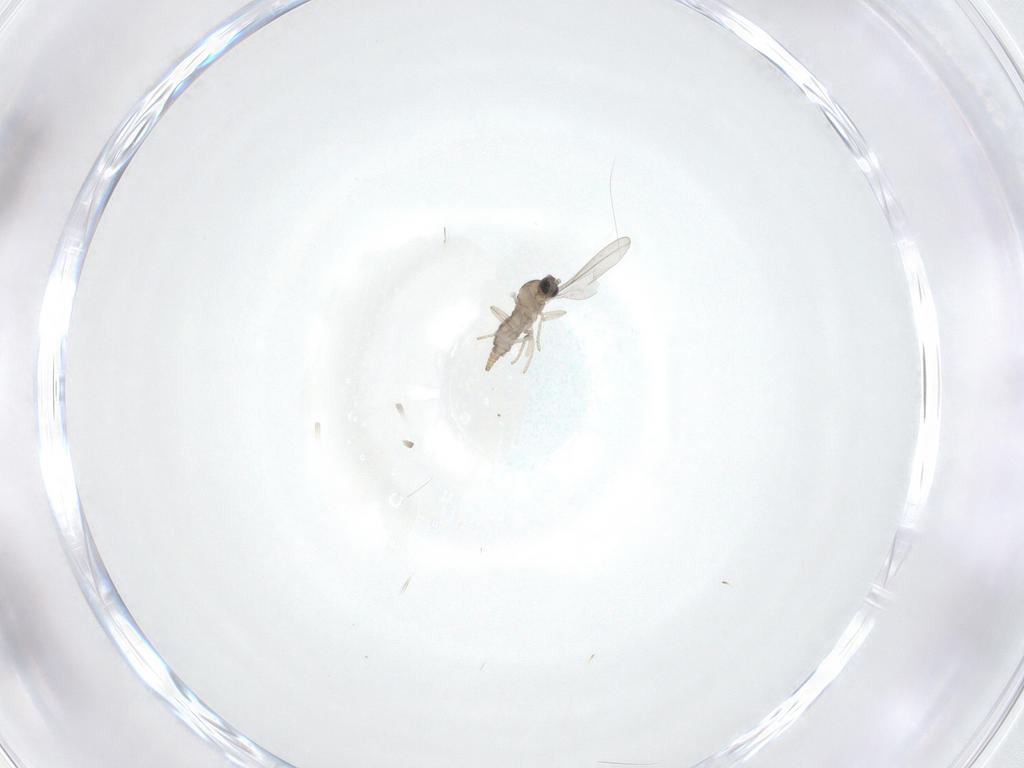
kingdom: Animalia
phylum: Arthropoda
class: Insecta
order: Diptera
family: Cecidomyiidae
